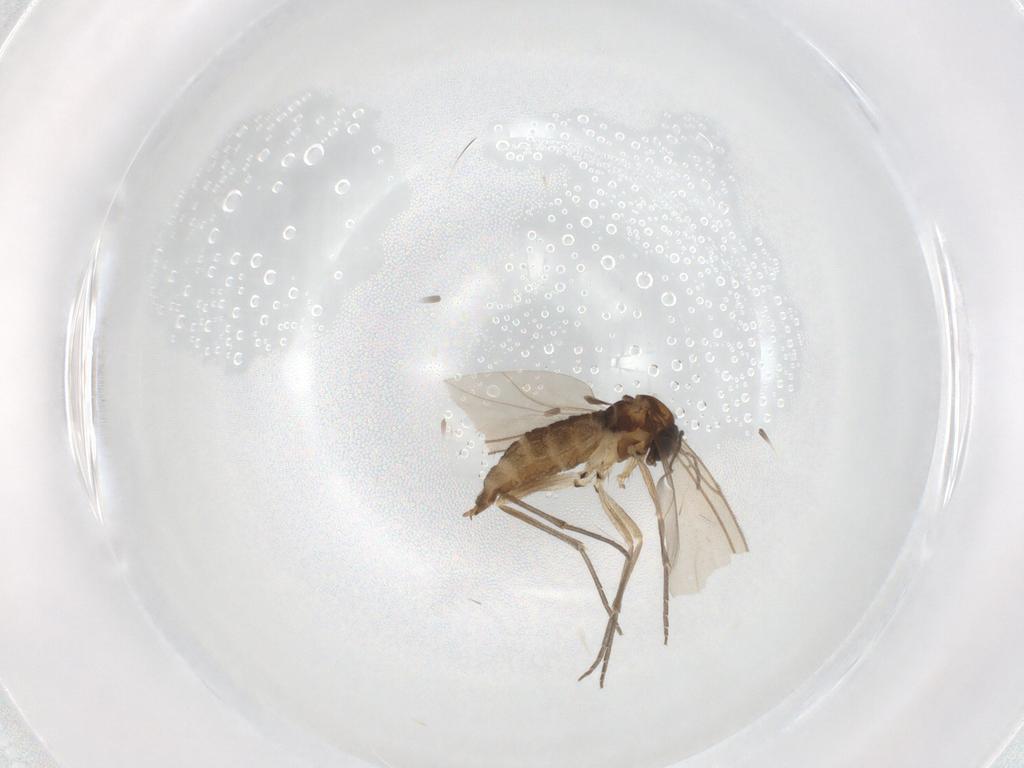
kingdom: Animalia
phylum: Arthropoda
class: Insecta
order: Diptera
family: Sciaridae
